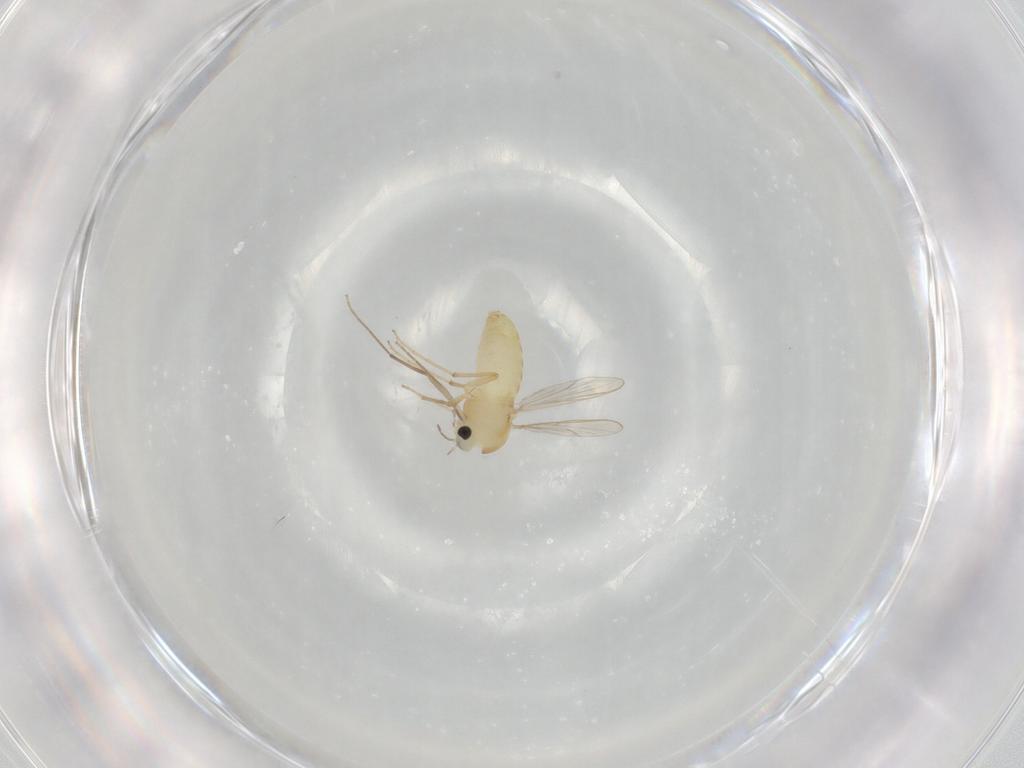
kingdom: Animalia
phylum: Arthropoda
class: Insecta
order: Diptera
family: Chironomidae
